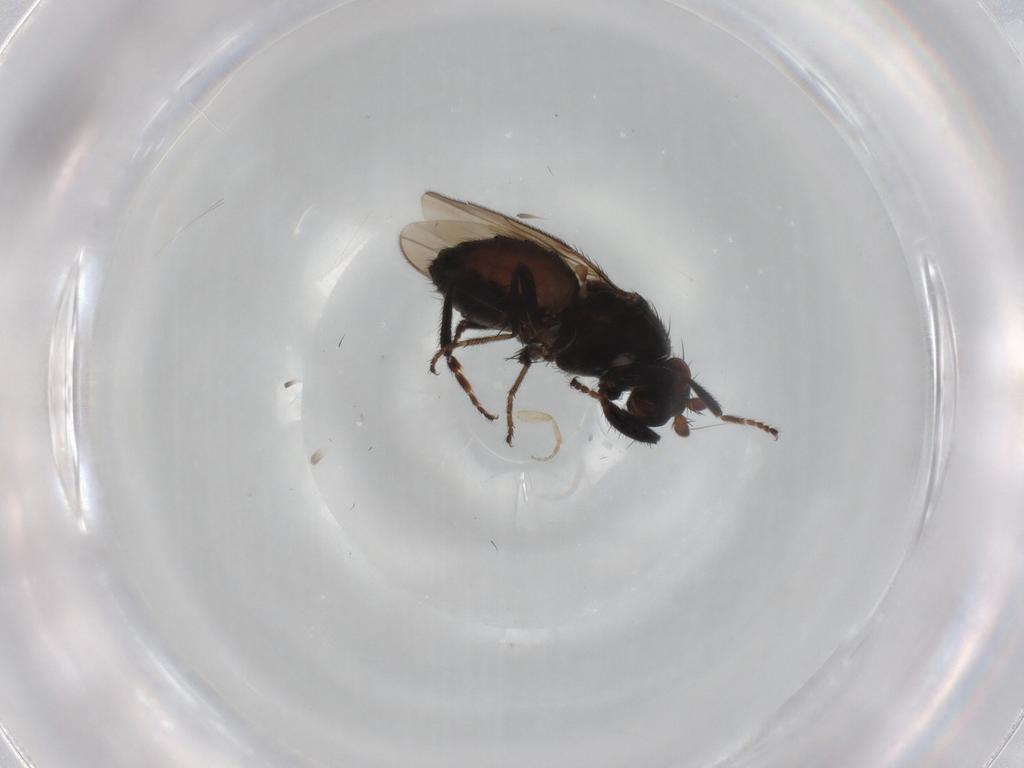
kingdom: Animalia
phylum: Arthropoda
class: Insecta
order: Diptera
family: Sphaeroceridae
